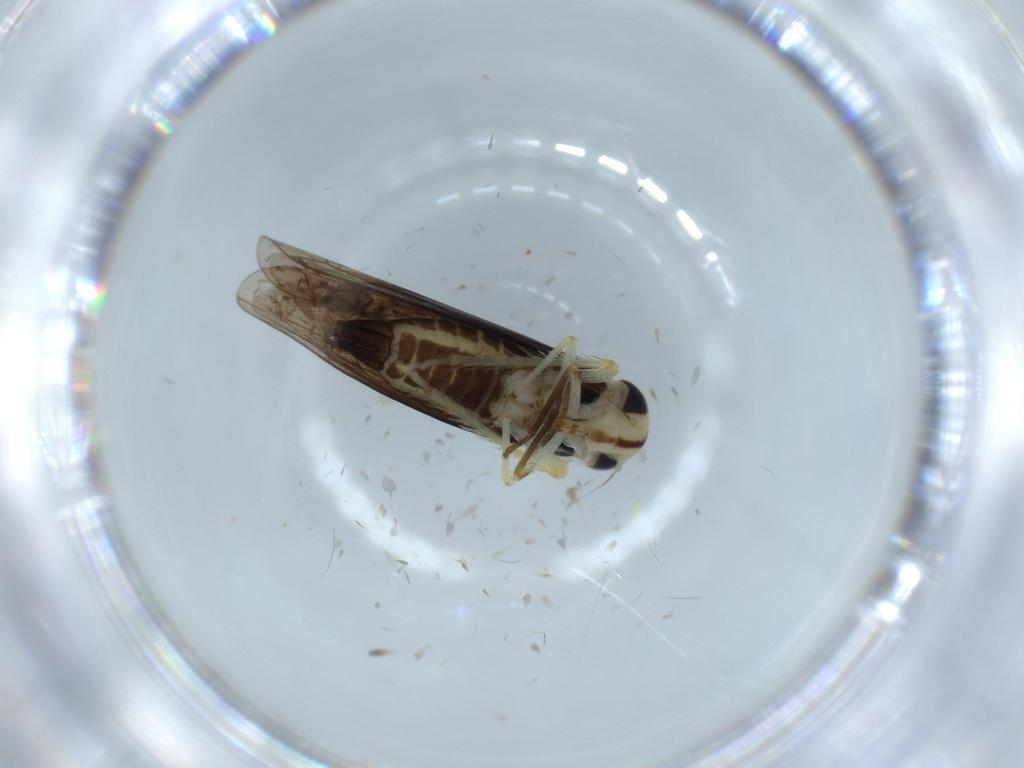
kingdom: Animalia
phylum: Arthropoda
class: Insecta
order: Hemiptera
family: Cicadellidae
